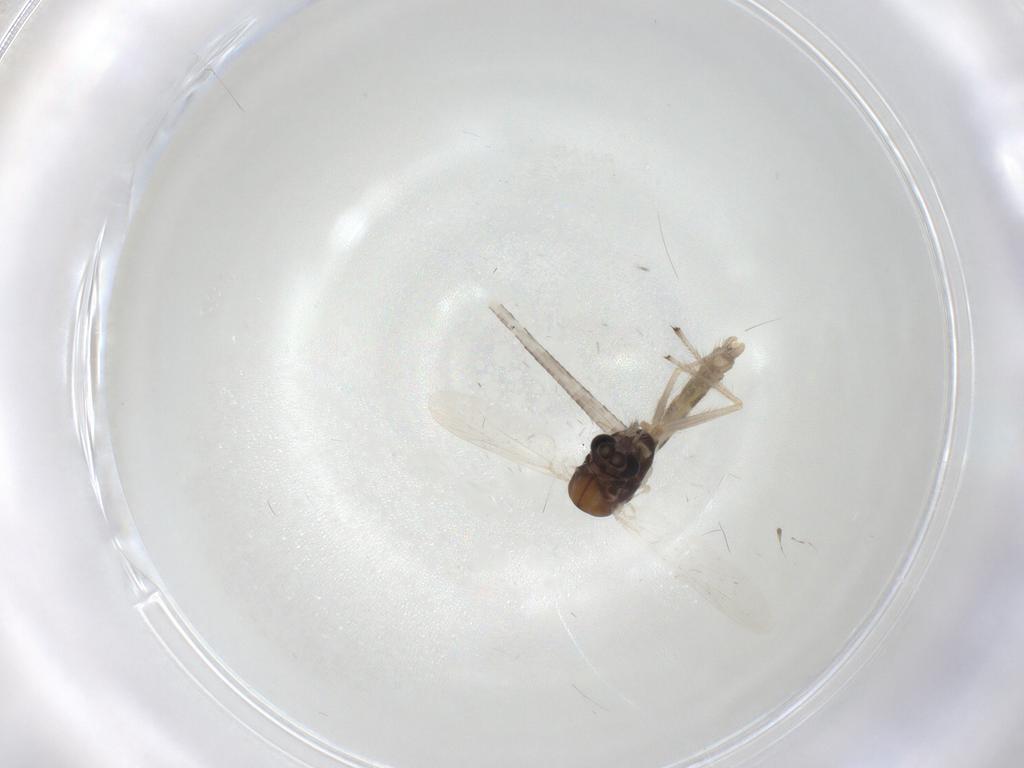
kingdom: Animalia
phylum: Arthropoda
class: Insecta
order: Diptera
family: Chironomidae
